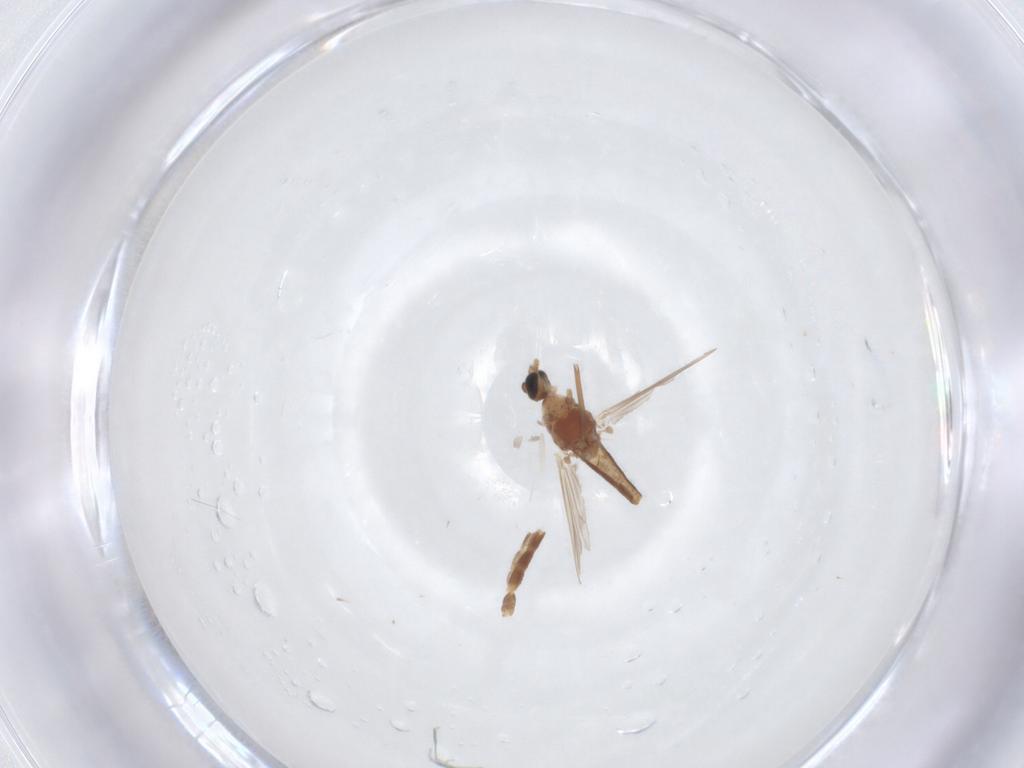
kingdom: Animalia
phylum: Arthropoda
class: Insecta
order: Diptera
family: Chironomidae
